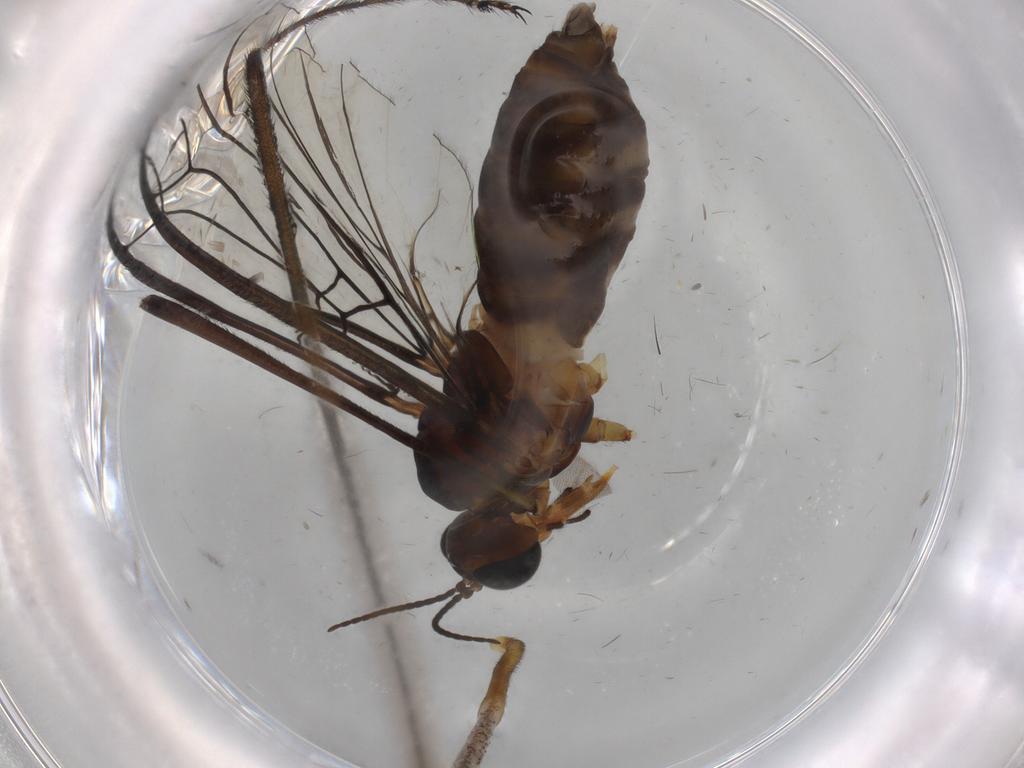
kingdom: Animalia
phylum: Arthropoda
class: Insecta
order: Diptera
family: Blephariceridae
